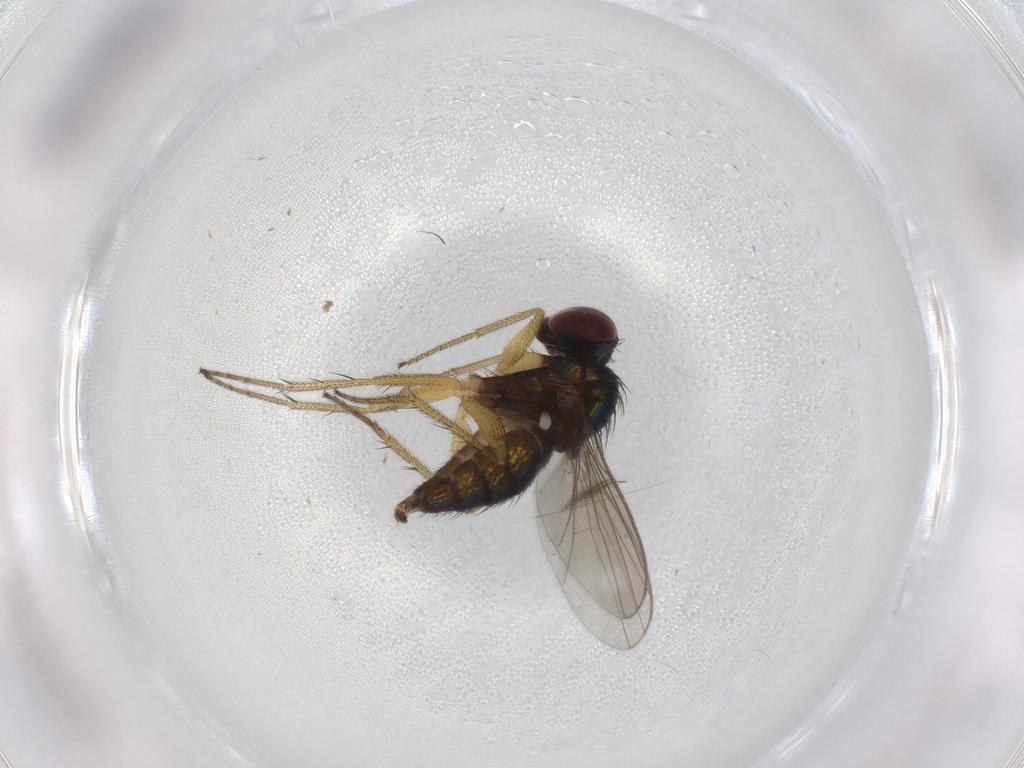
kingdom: Animalia
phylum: Arthropoda
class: Insecta
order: Diptera
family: Ceratopogonidae
